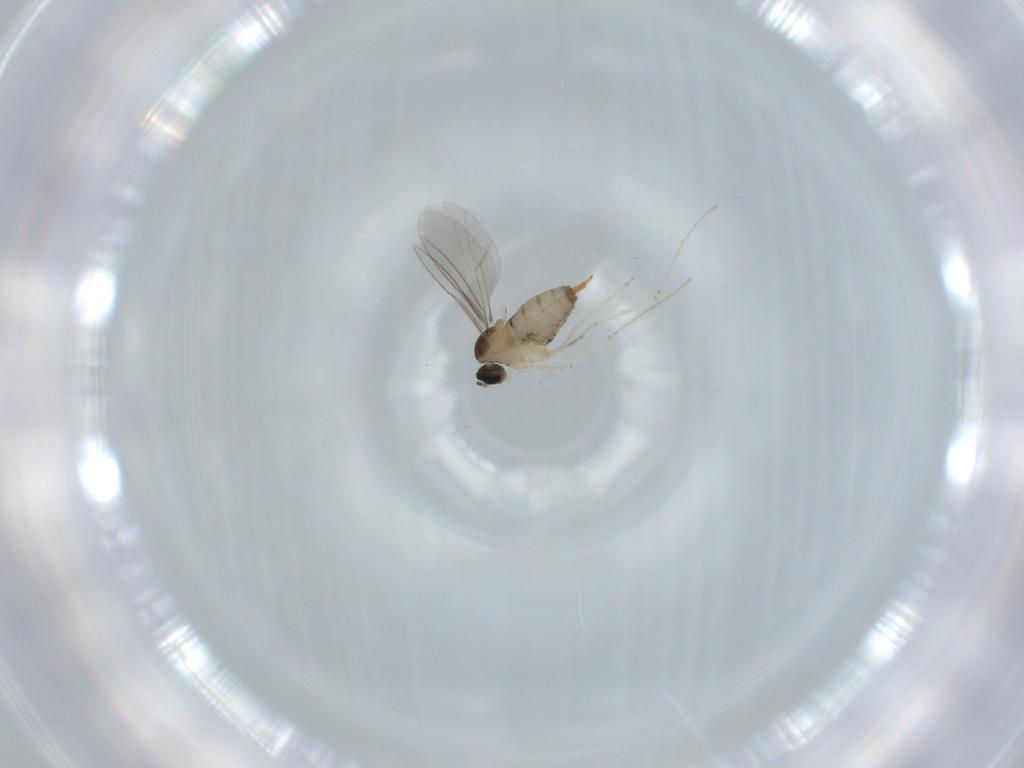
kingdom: Animalia
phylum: Arthropoda
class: Insecta
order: Diptera
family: Cecidomyiidae
